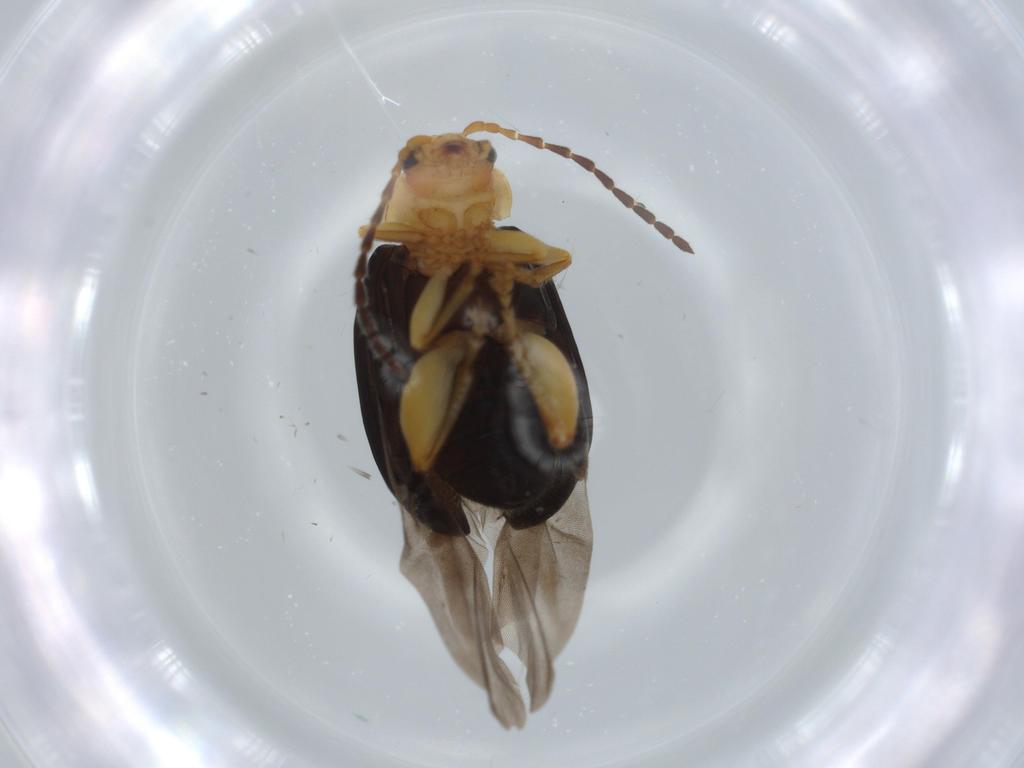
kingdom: Animalia
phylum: Arthropoda
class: Insecta
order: Coleoptera
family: Chrysomelidae
